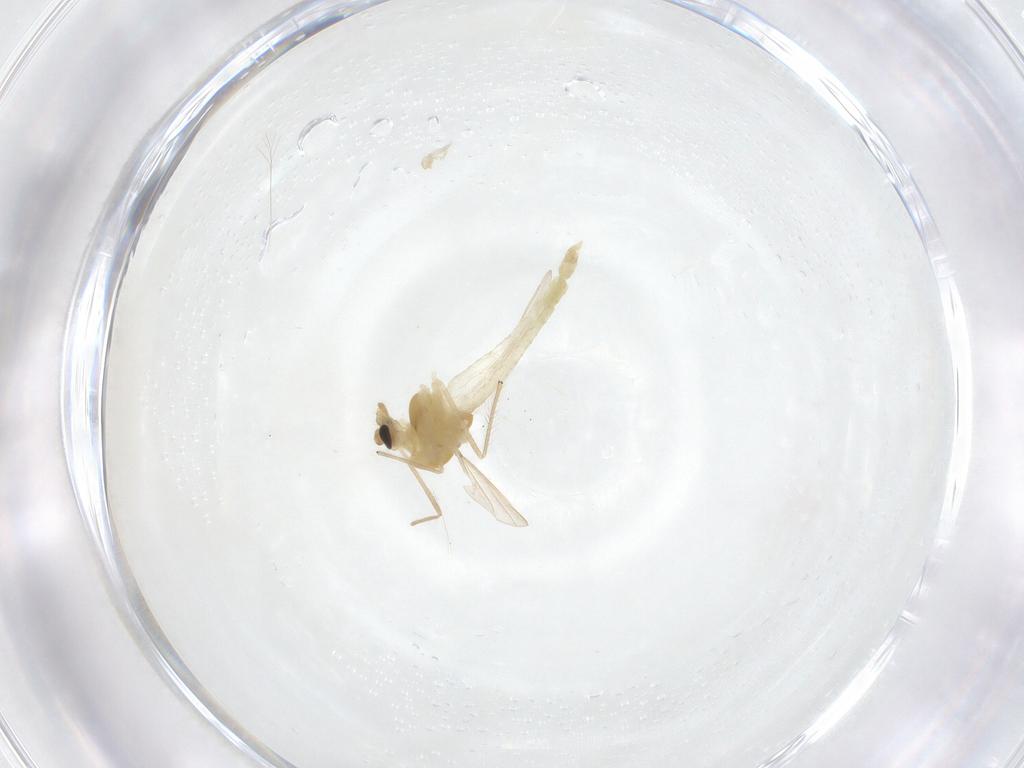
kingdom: Animalia
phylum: Arthropoda
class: Insecta
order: Diptera
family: Chironomidae
